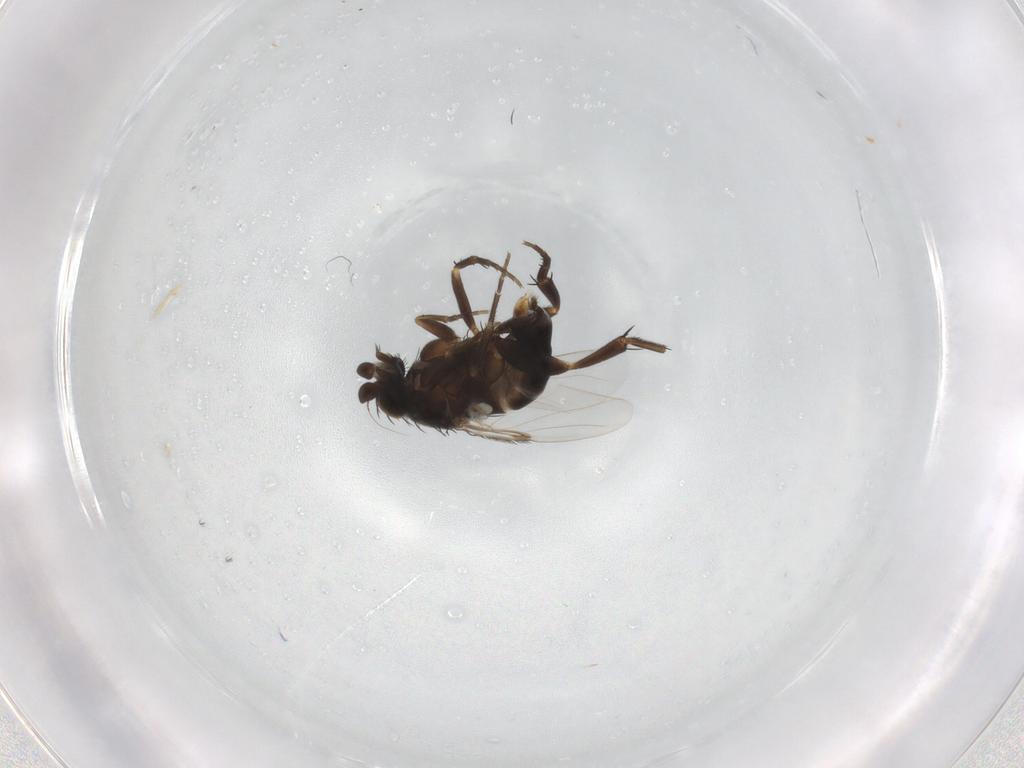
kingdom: Animalia
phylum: Arthropoda
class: Insecta
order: Diptera
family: Phoridae
